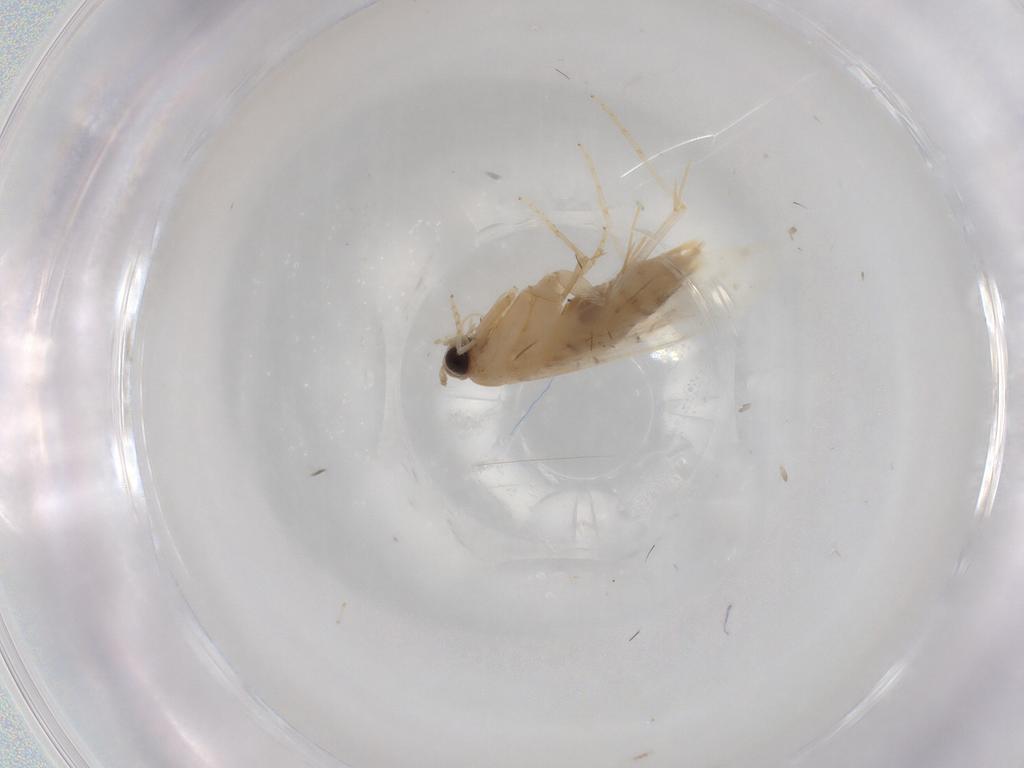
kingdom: Animalia
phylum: Arthropoda
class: Insecta
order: Lepidoptera
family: Tineidae
